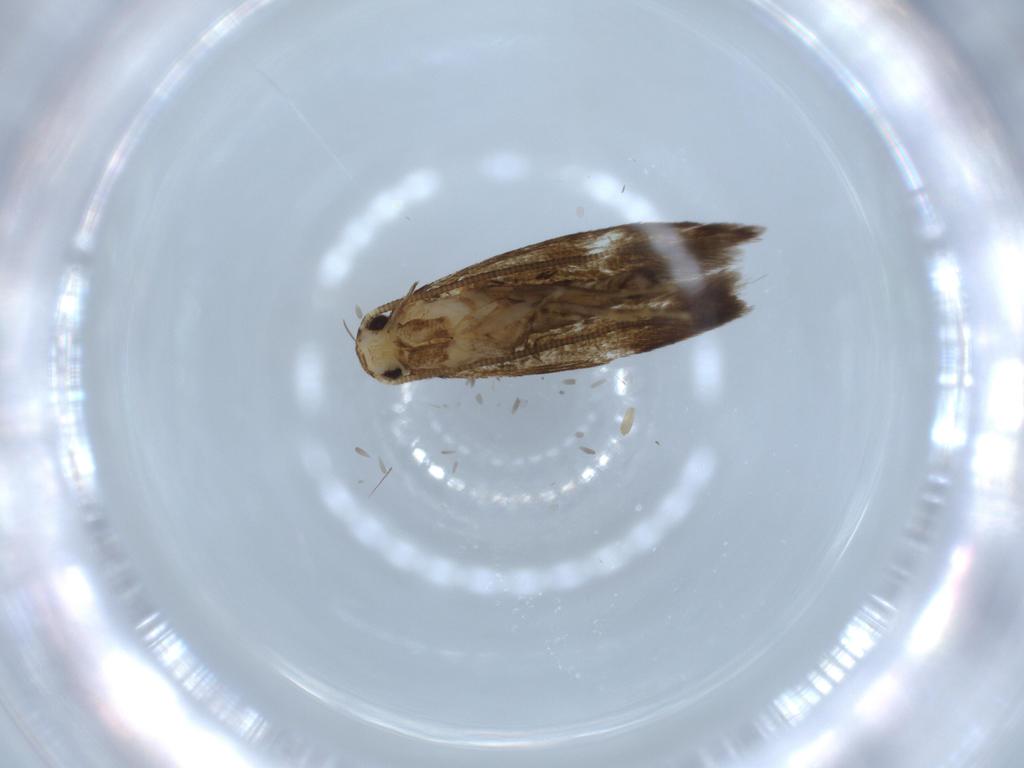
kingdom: Animalia
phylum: Arthropoda
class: Insecta
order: Lepidoptera
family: Tineidae
